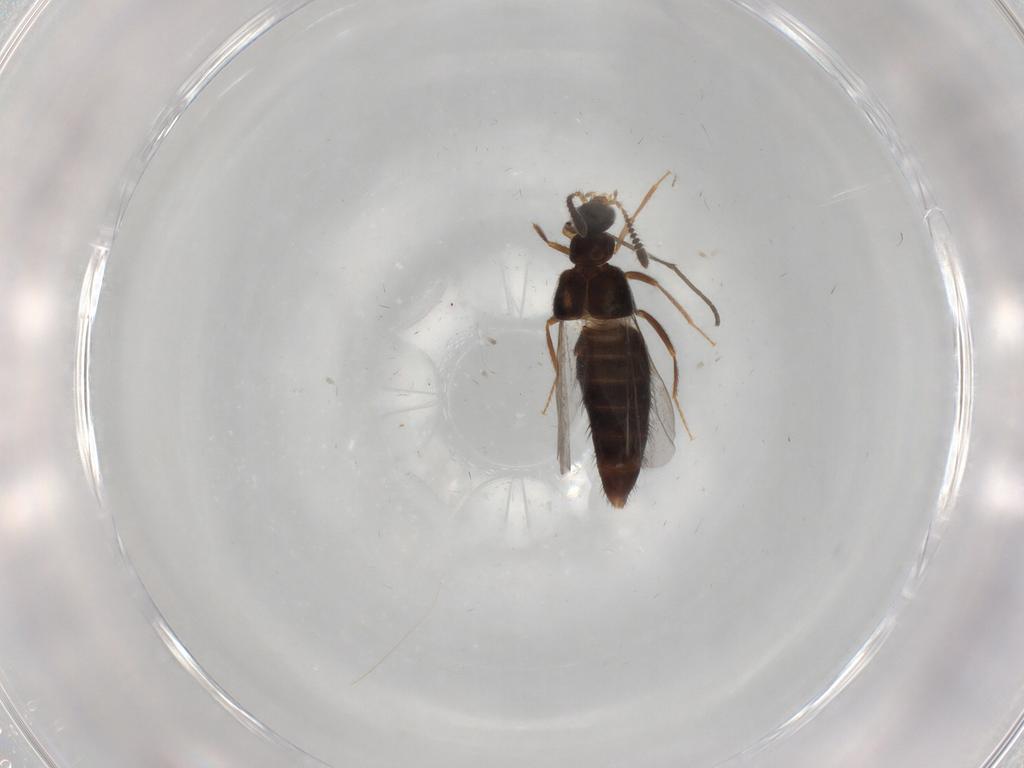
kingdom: Animalia
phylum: Arthropoda
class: Insecta
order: Coleoptera
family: Staphylinidae
